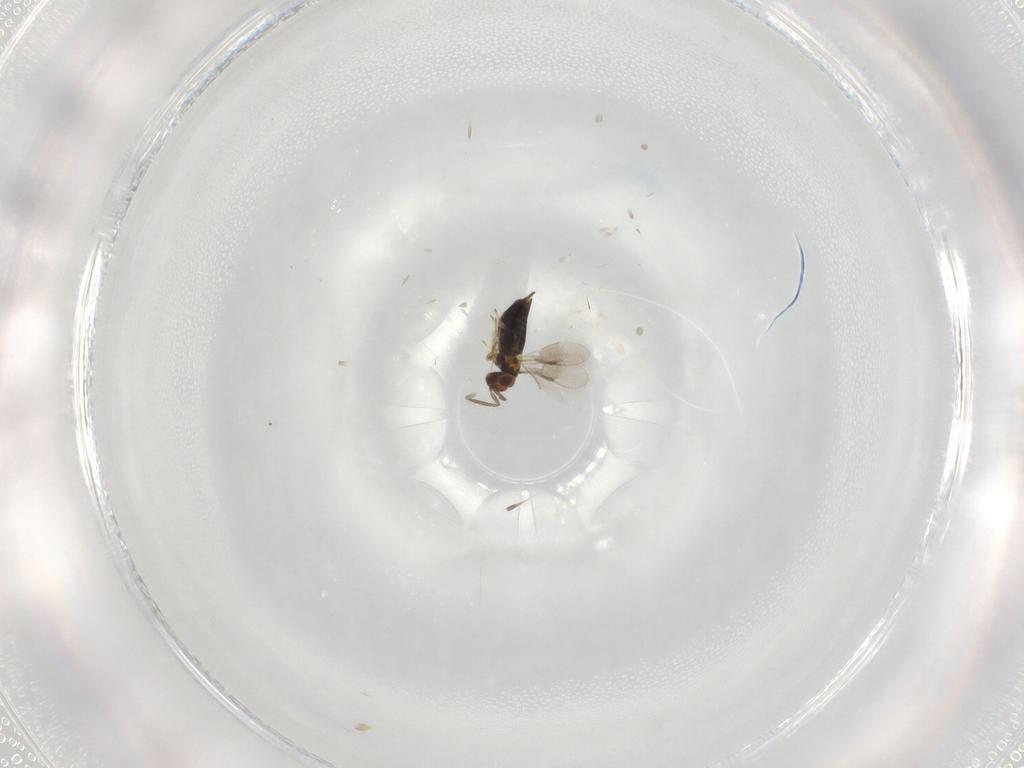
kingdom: Animalia
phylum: Arthropoda
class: Insecta
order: Hymenoptera
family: Aphelinidae
